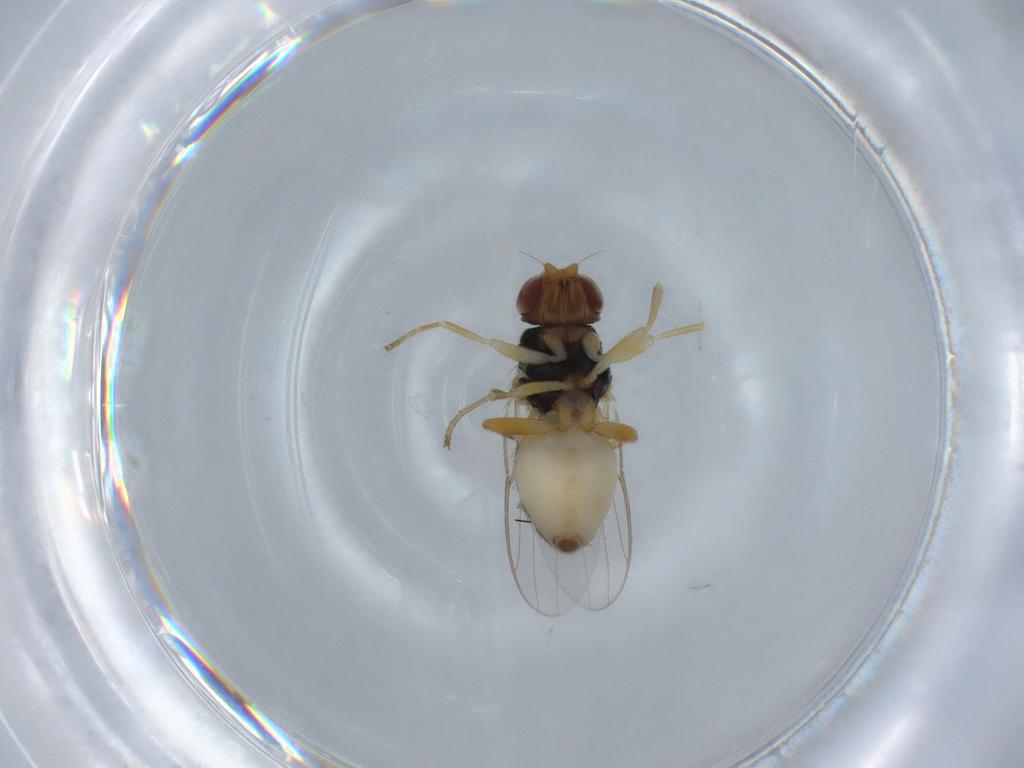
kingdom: Animalia
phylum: Arthropoda
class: Insecta
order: Diptera
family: Chloropidae
